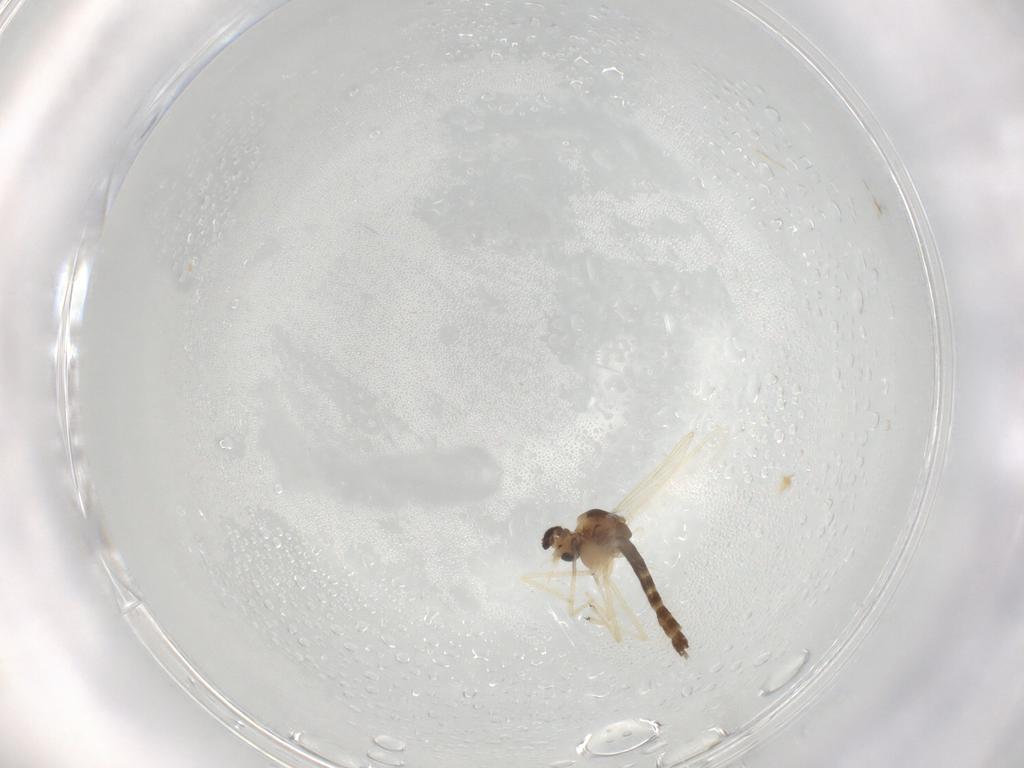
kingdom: Animalia
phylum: Arthropoda
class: Insecta
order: Diptera
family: Chironomidae
